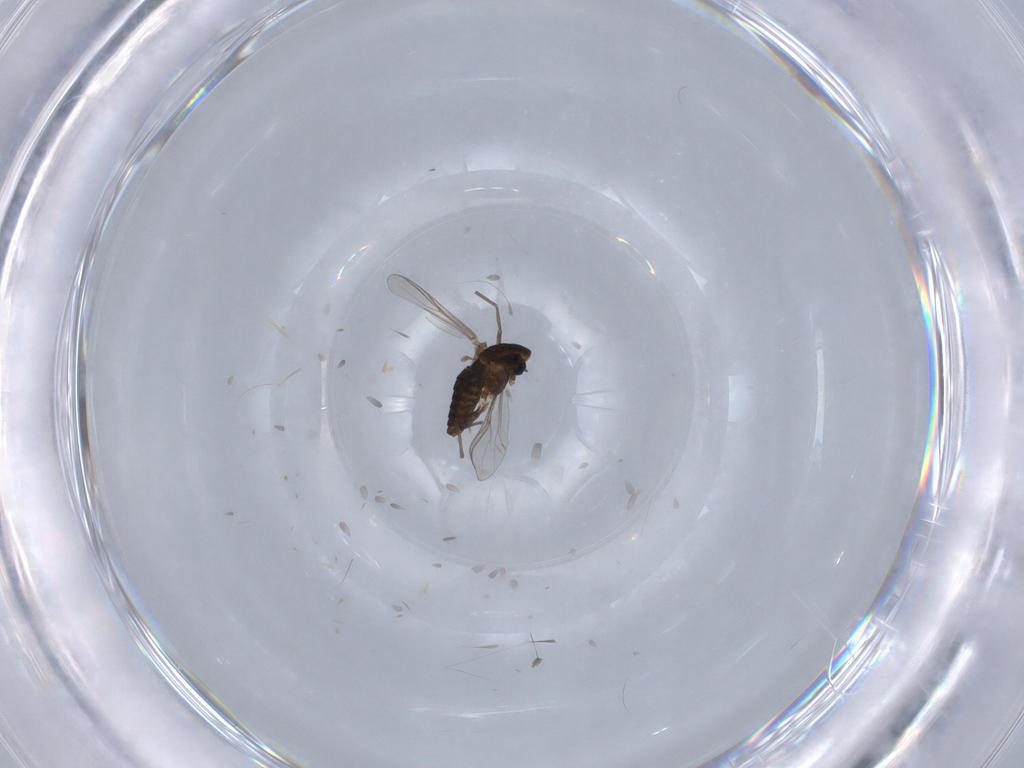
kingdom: Animalia
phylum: Arthropoda
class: Insecta
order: Diptera
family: Chironomidae
